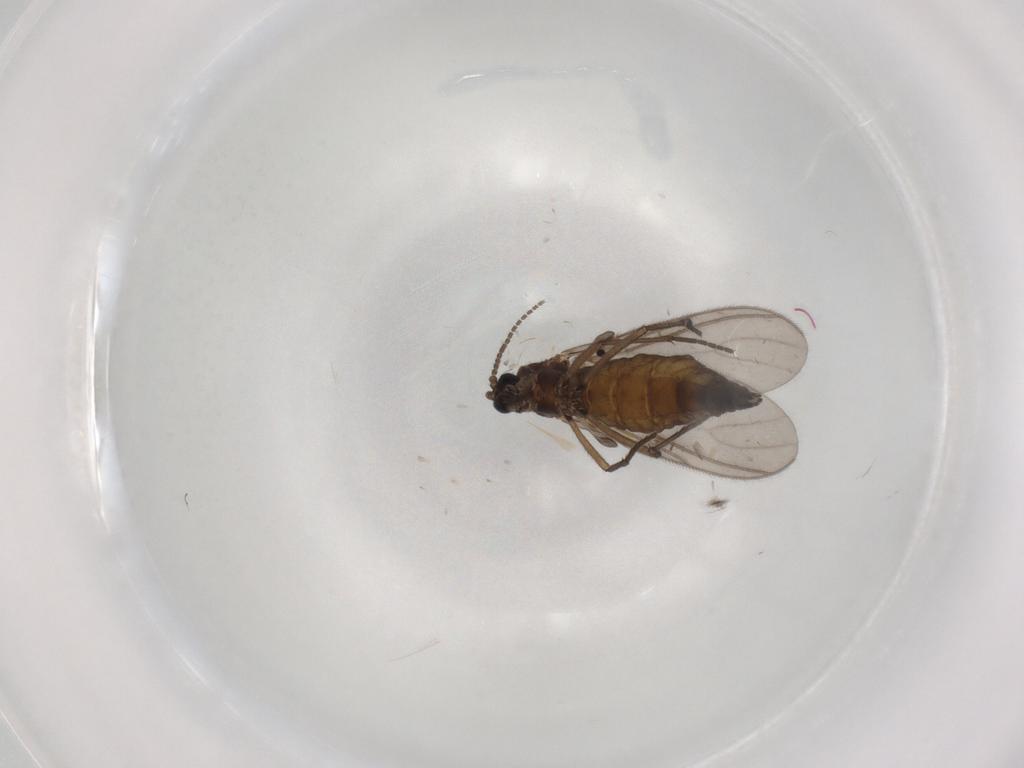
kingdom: Animalia
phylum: Arthropoda
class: Insecta
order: Diptera
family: Sciaridae
